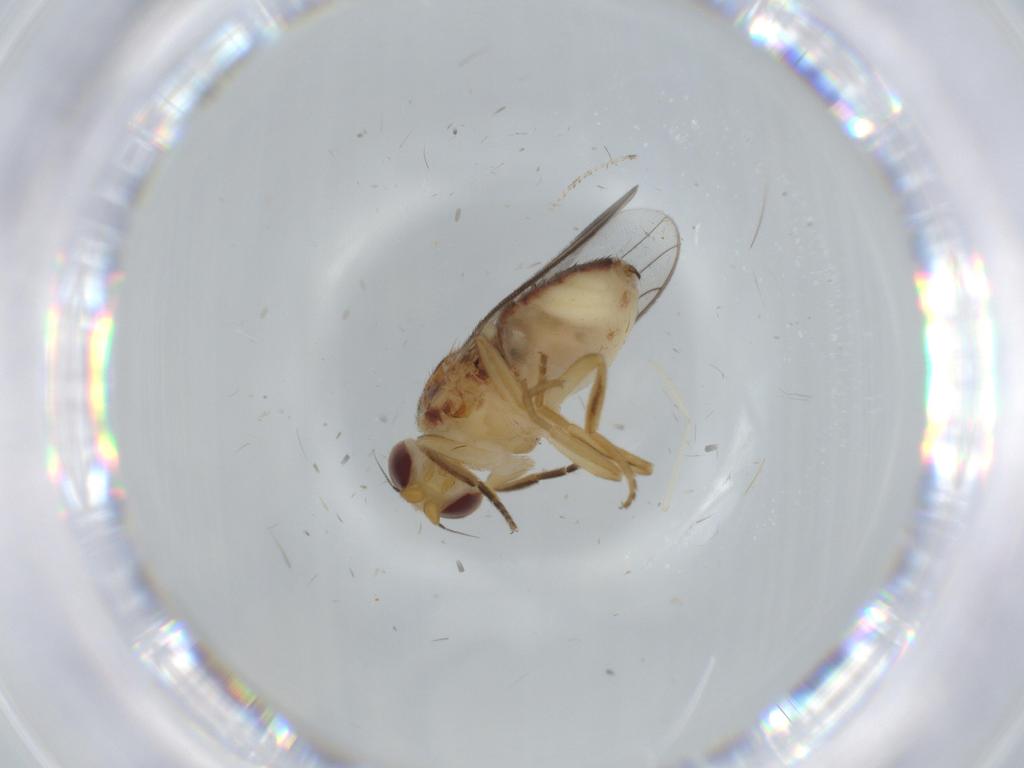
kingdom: Animalia
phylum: Arthropoda
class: Insecta
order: Diptera
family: Chloropidae
